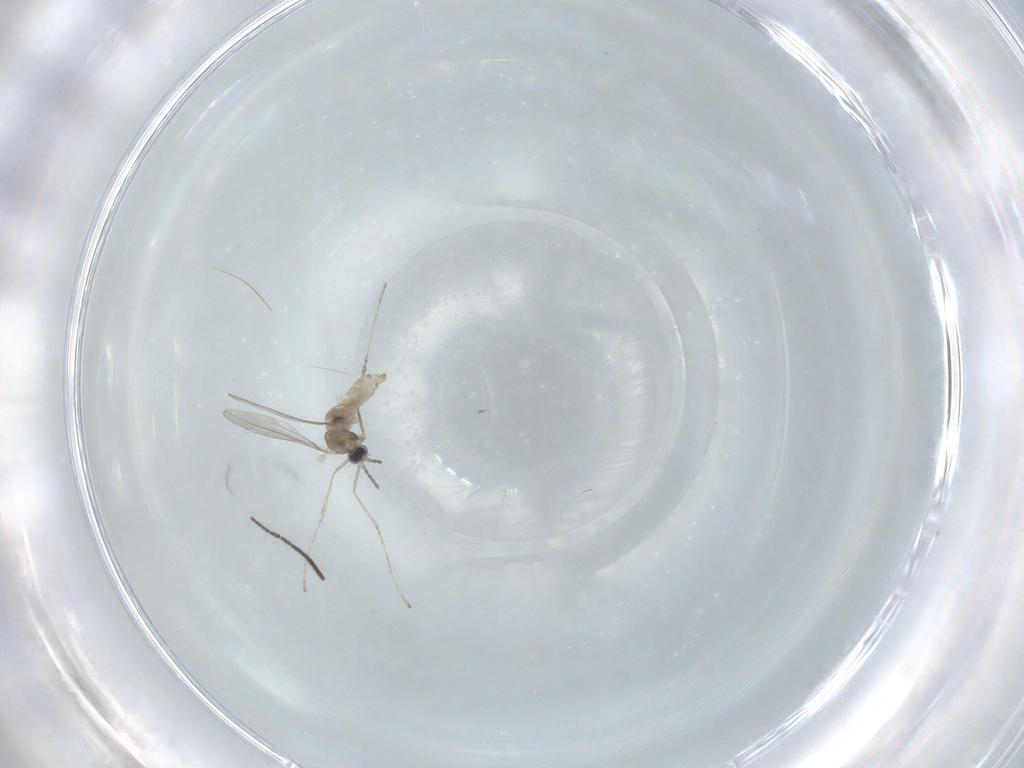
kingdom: Animalia
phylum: Arthropoda
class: Insecta
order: Diptera
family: Sciaridae
